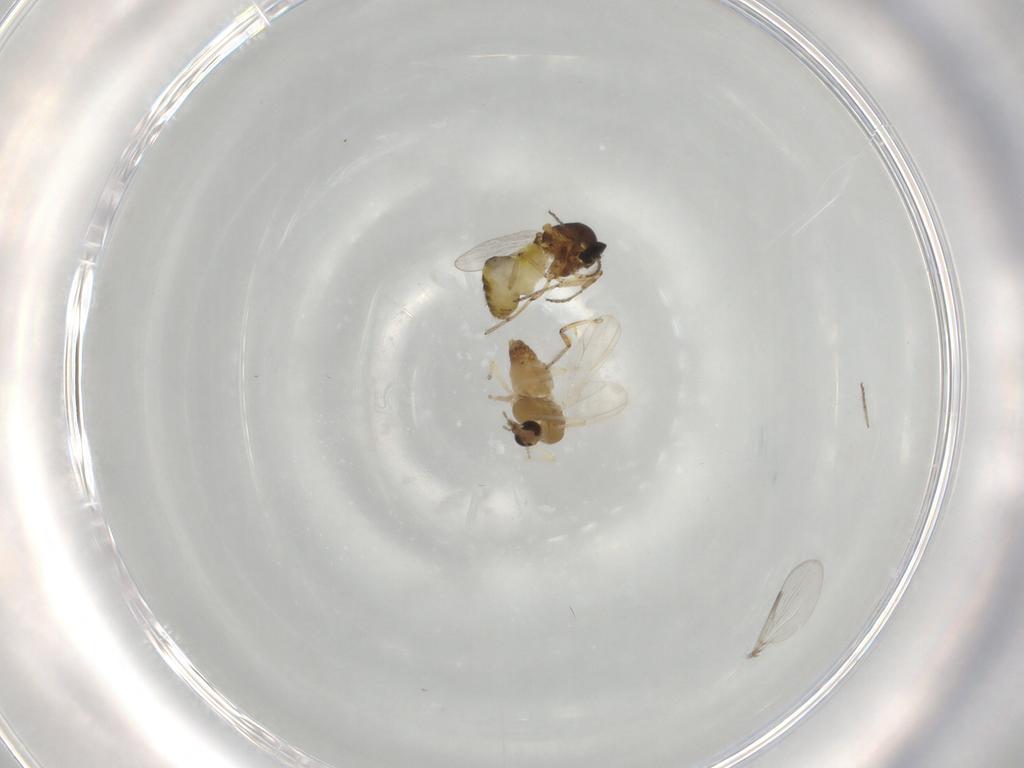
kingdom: Animalia
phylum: Arthropoda
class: Insecta
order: Diptera
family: Ceratopogonidae
